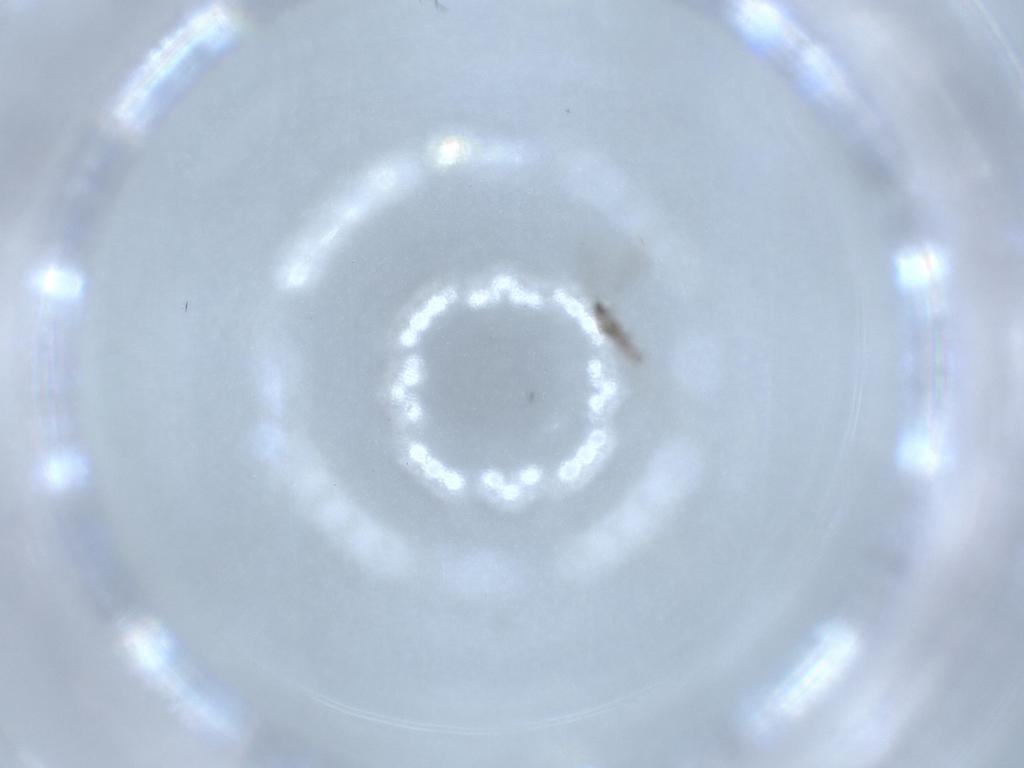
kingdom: Animalia
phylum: Arthropoda
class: Insecta
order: Diptera
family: Cecidomyiidae
